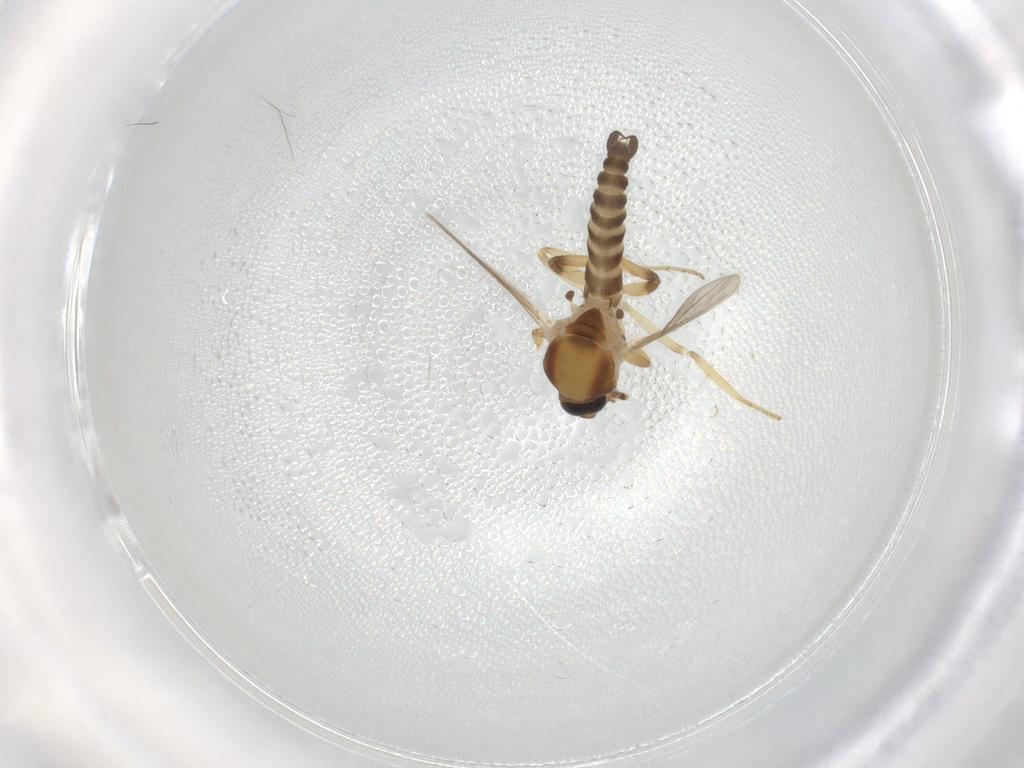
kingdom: Animalia
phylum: Arthropoda
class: Insecta
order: Diptera
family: Ceratopogonidae
